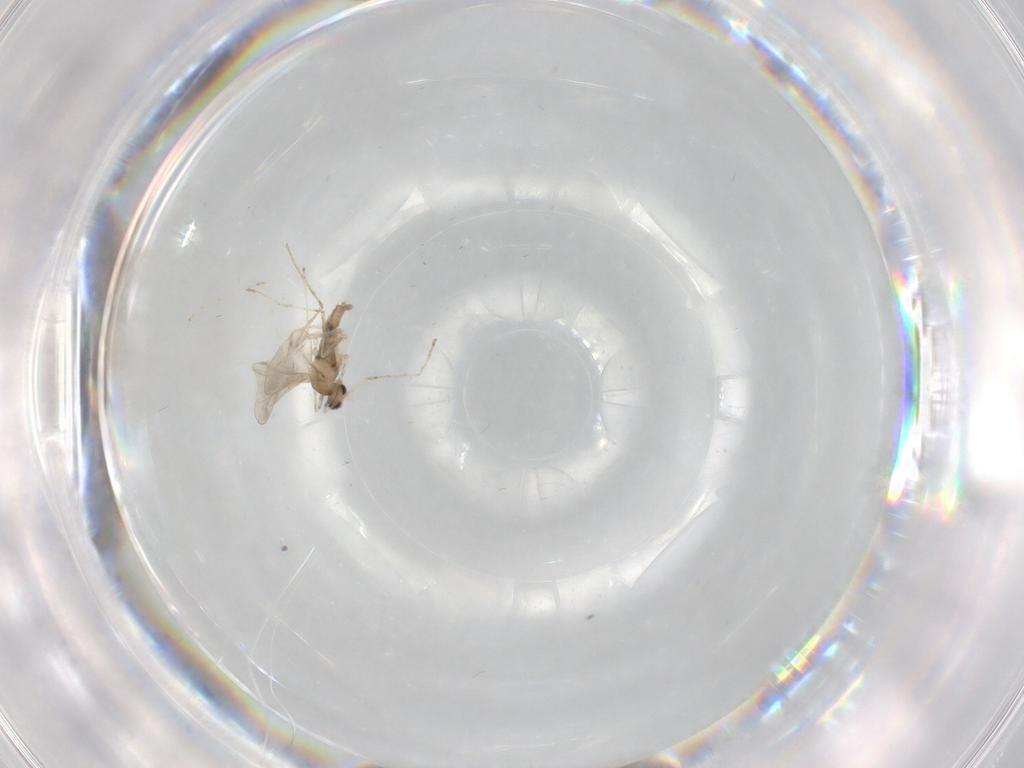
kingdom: Animalia
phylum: Arthropoda
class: Insecta
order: Diptera
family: Cecidomyiidae
